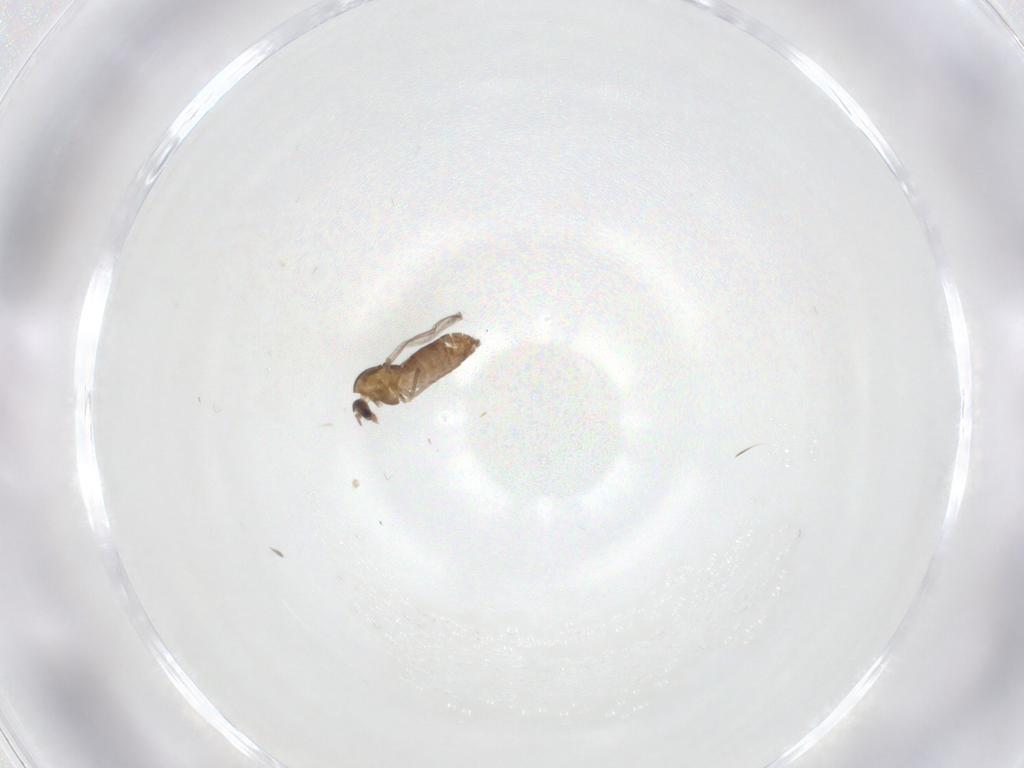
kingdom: Animalia
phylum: Arthropoda
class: Insecta
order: Diptera
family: Chironomidae
